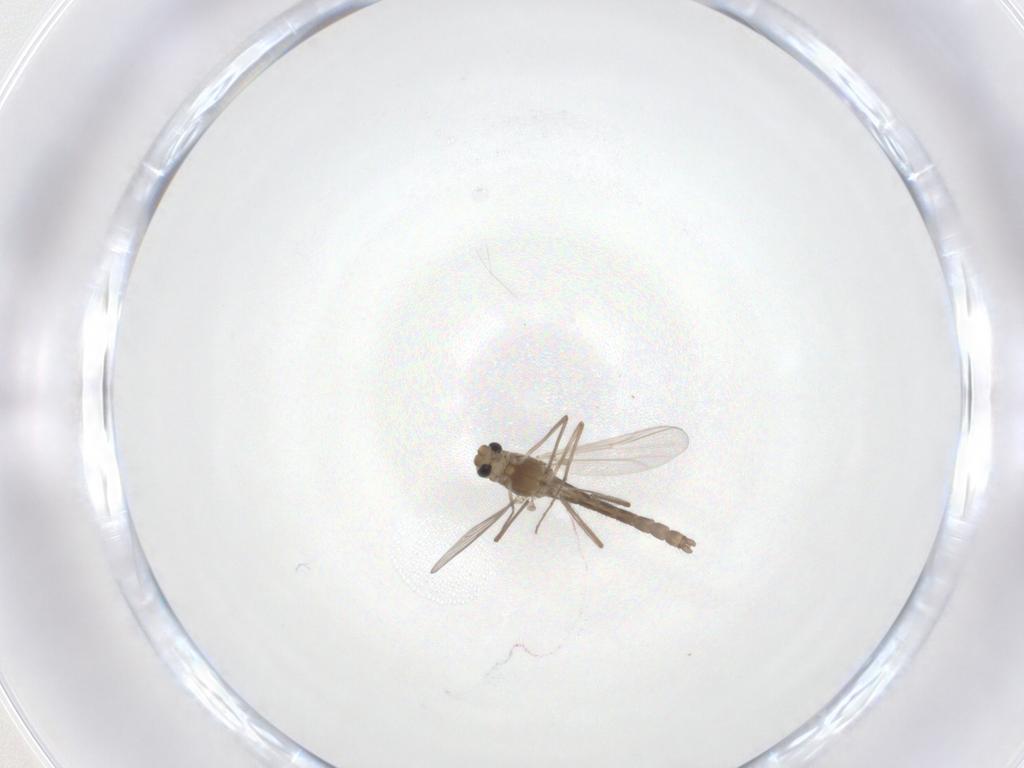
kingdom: Animalia
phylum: Arthropoda
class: Insecta
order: Diptera
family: Chironomidae
